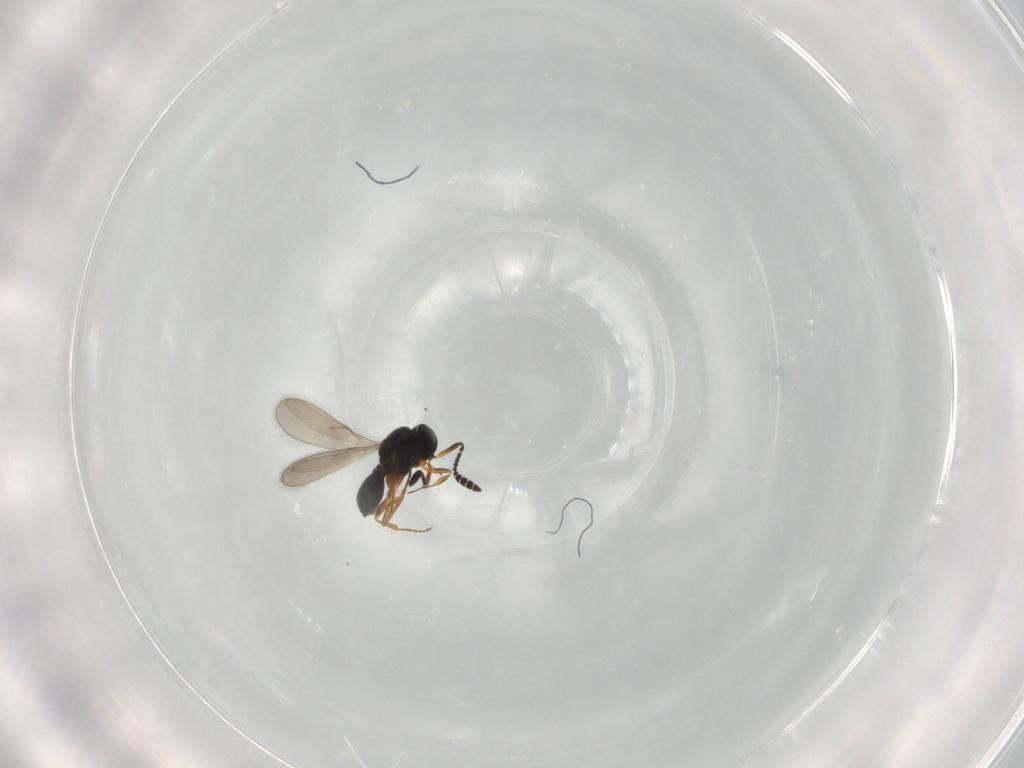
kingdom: Animalia
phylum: Arthropoda
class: Insecta
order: Hymenoptera
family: Scelionidae
